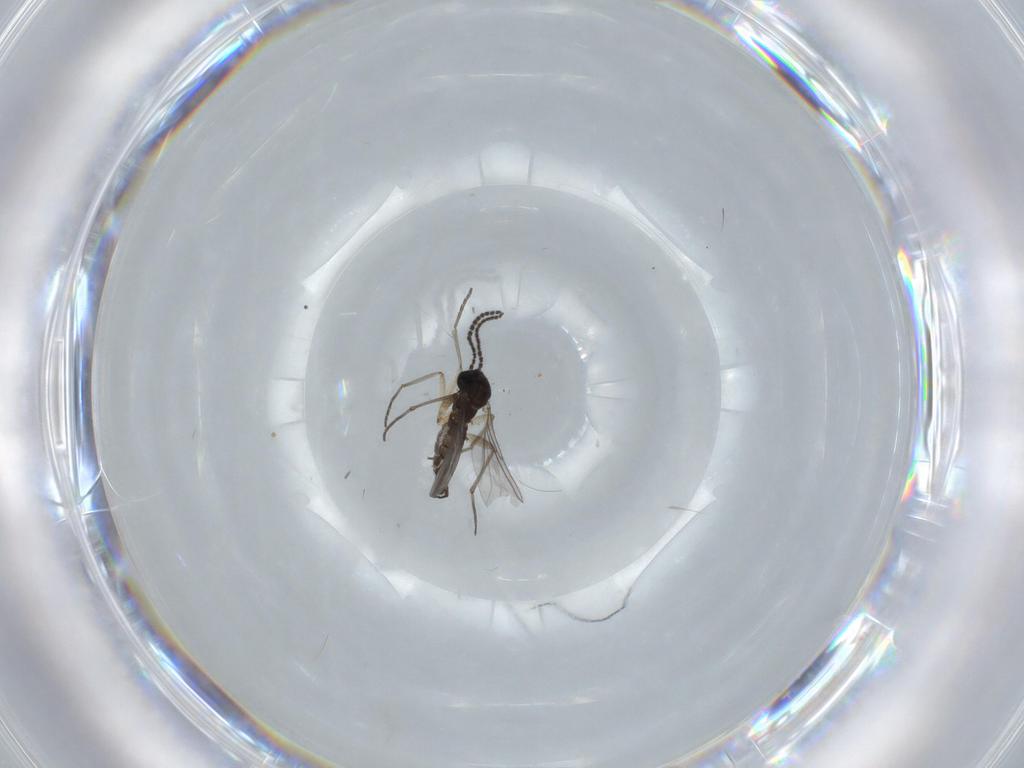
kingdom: Animalia
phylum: Arthropoda
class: Insecta
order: Diptera
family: Sciaridae
